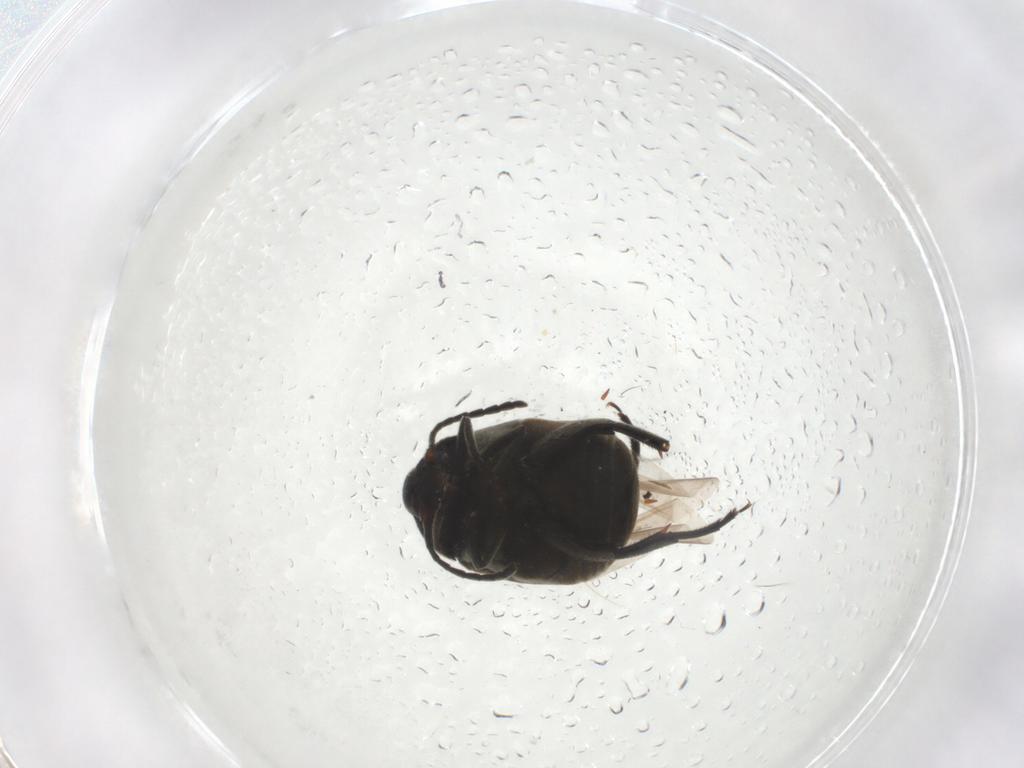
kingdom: Animalia
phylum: Arthropoda
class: Insecta
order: Coleoptera
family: Chrysomelidae
